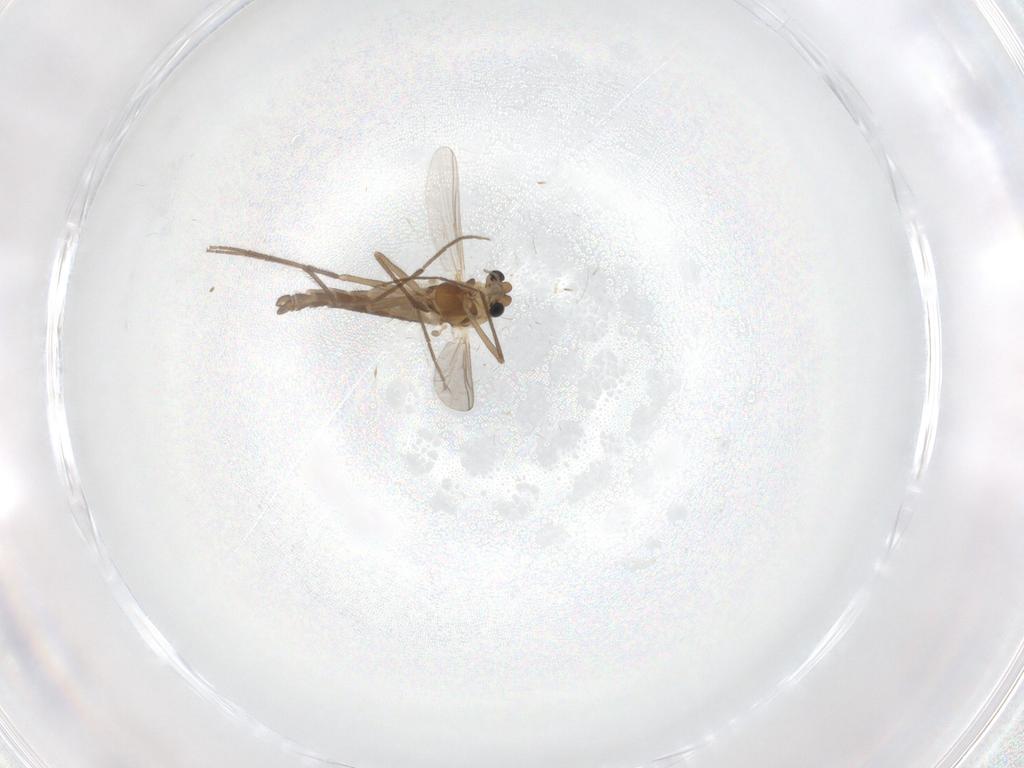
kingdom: Animalia
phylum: Arthropoda
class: Insecta
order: Diptera
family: Chironomidae
